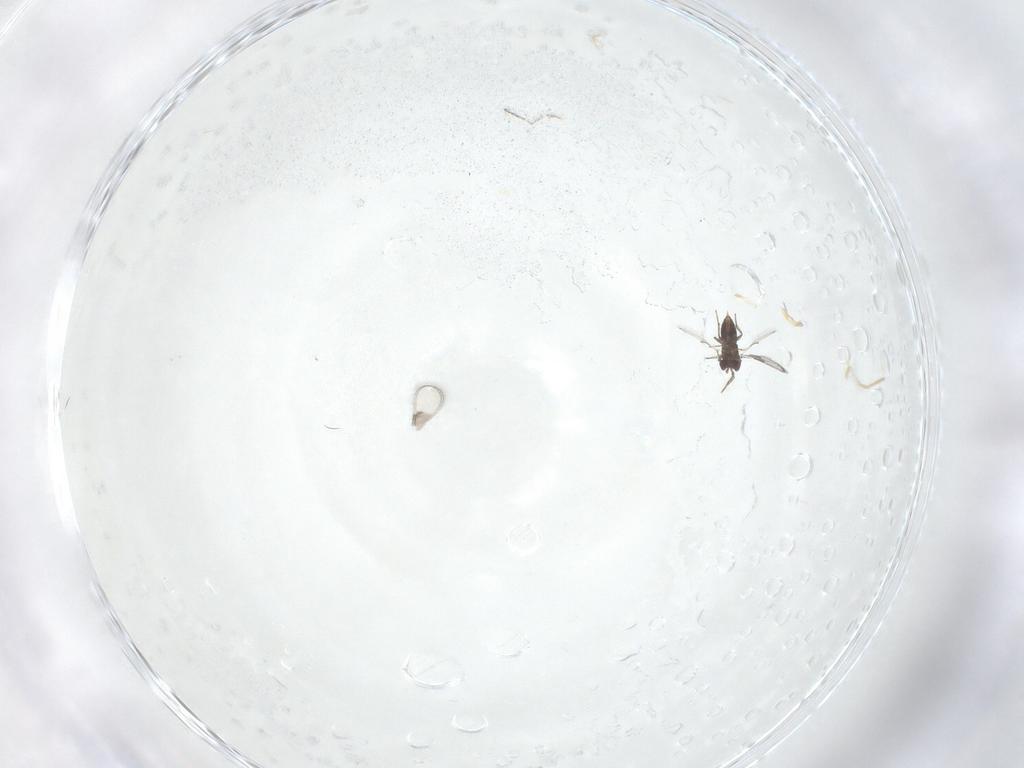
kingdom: Animalia
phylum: Arthropoda
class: Insecta
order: Hymenoptera
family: Trichogrammatidae
